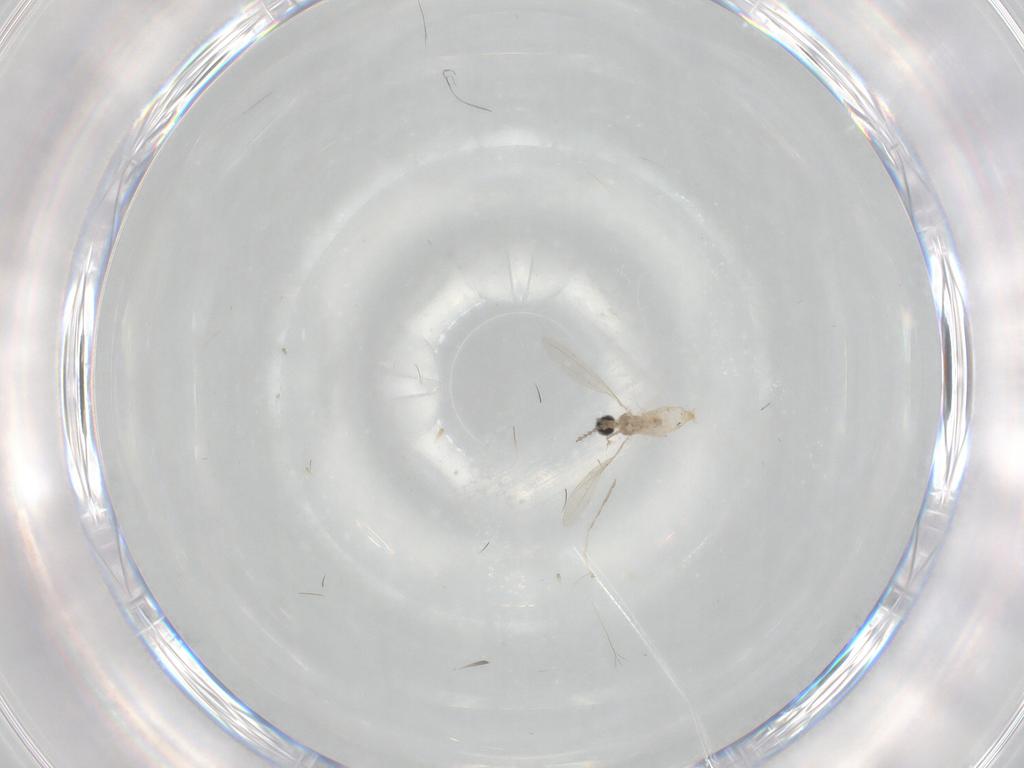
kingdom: Animalia
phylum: Arthropoda
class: Insecta
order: Diptera
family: Cecidomyiidae
